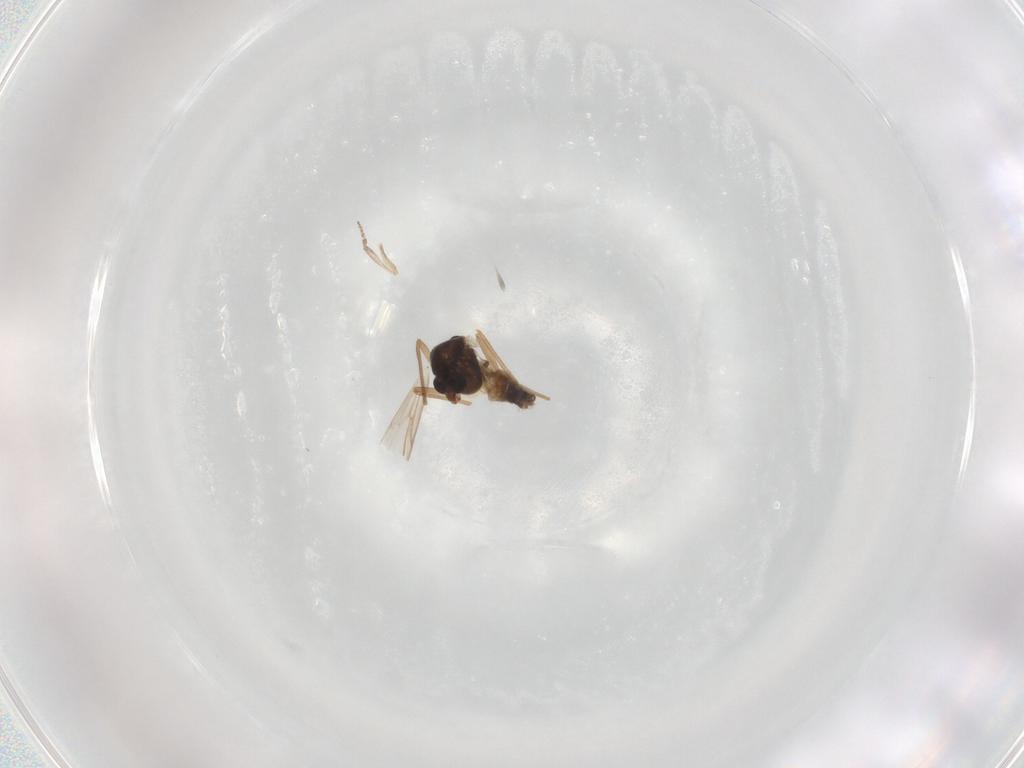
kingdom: Animalia
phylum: Arthropoda
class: Insecta
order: Diptera
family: Chironomidae
